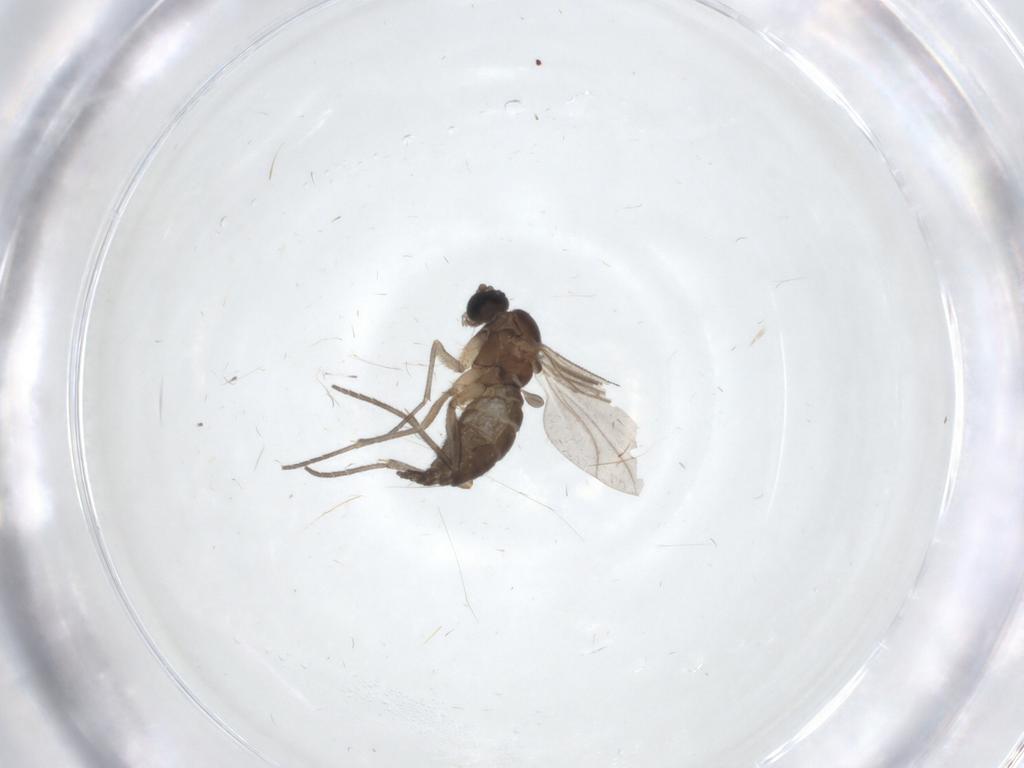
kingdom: Animalia
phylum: Arthropoda
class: Insecta
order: Diptera
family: Sciaridae
